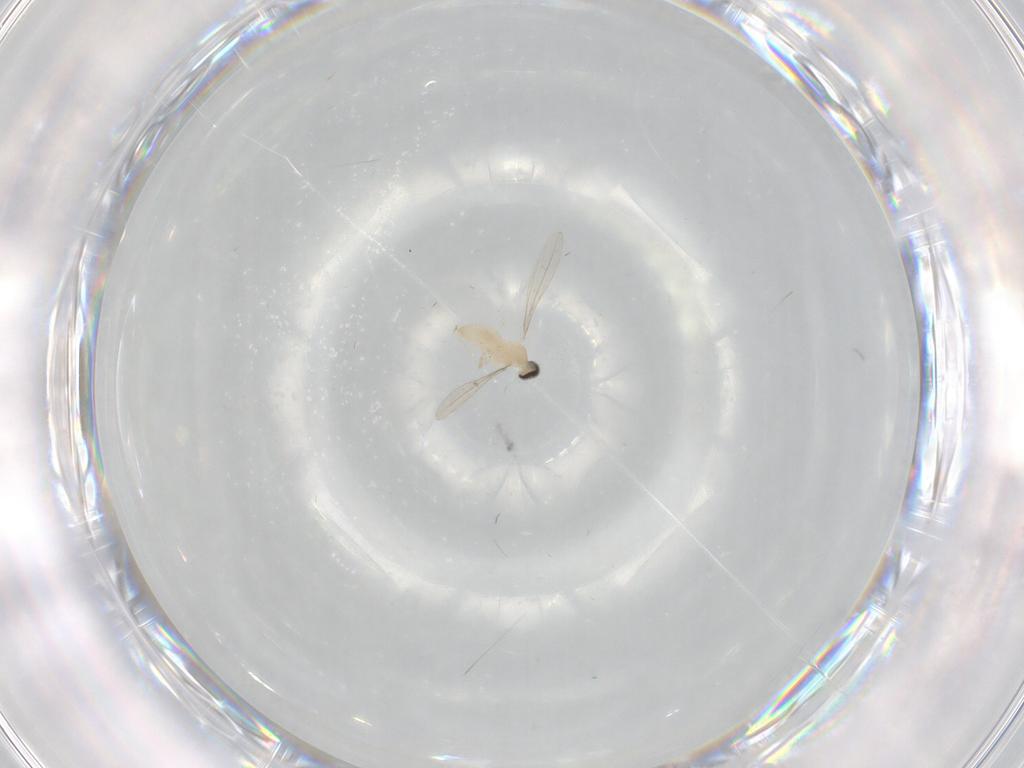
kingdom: Animalia
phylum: Arthropoda
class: Insecta
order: Diptera
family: Cecidomyiidae
